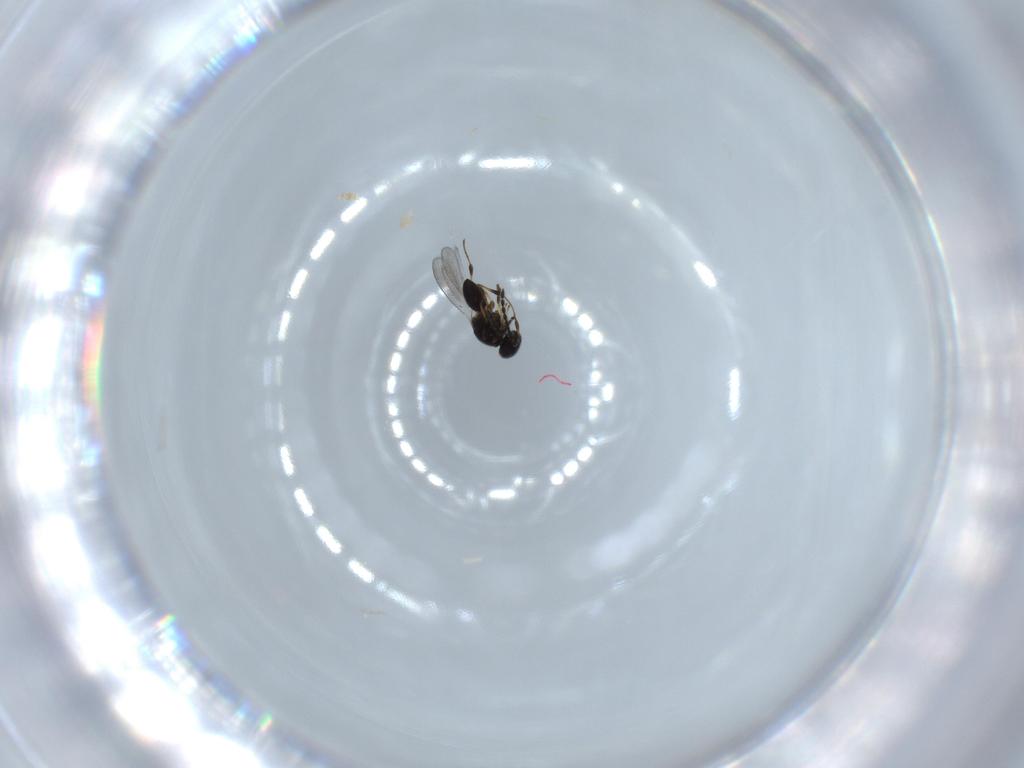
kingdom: Animalia
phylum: Arthropoda
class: Insecta
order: Hymenoptera
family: Platygastridae
